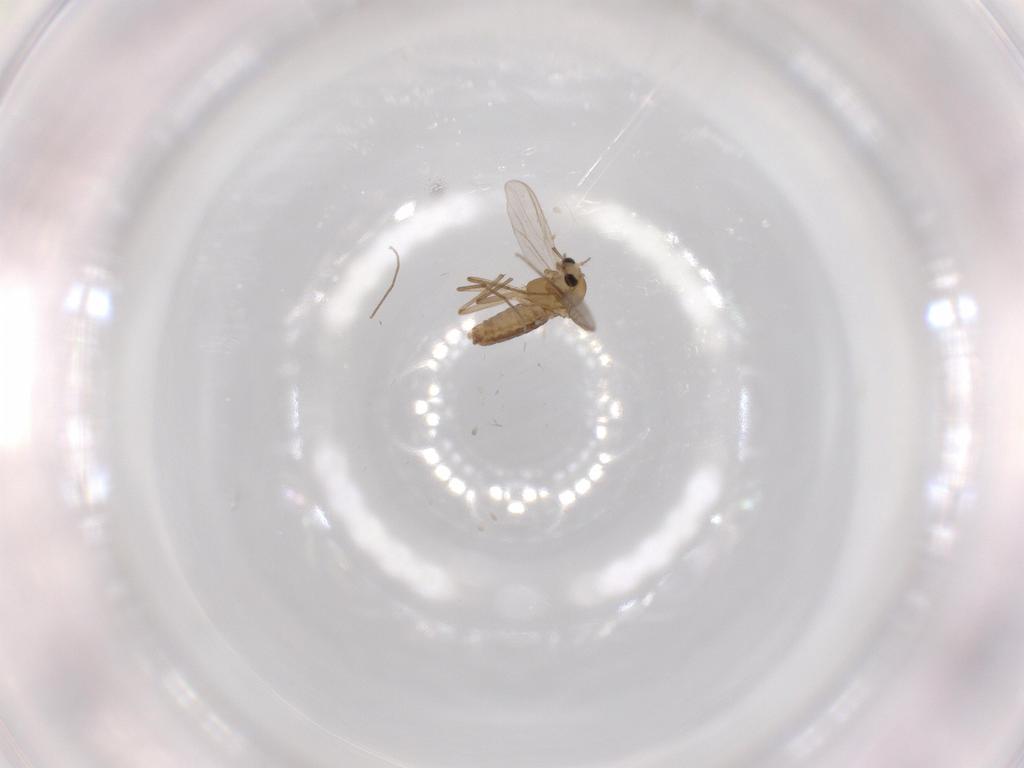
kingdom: Animalia
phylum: Arthropoda
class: Insecta
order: Diptera
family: Chironomidae
